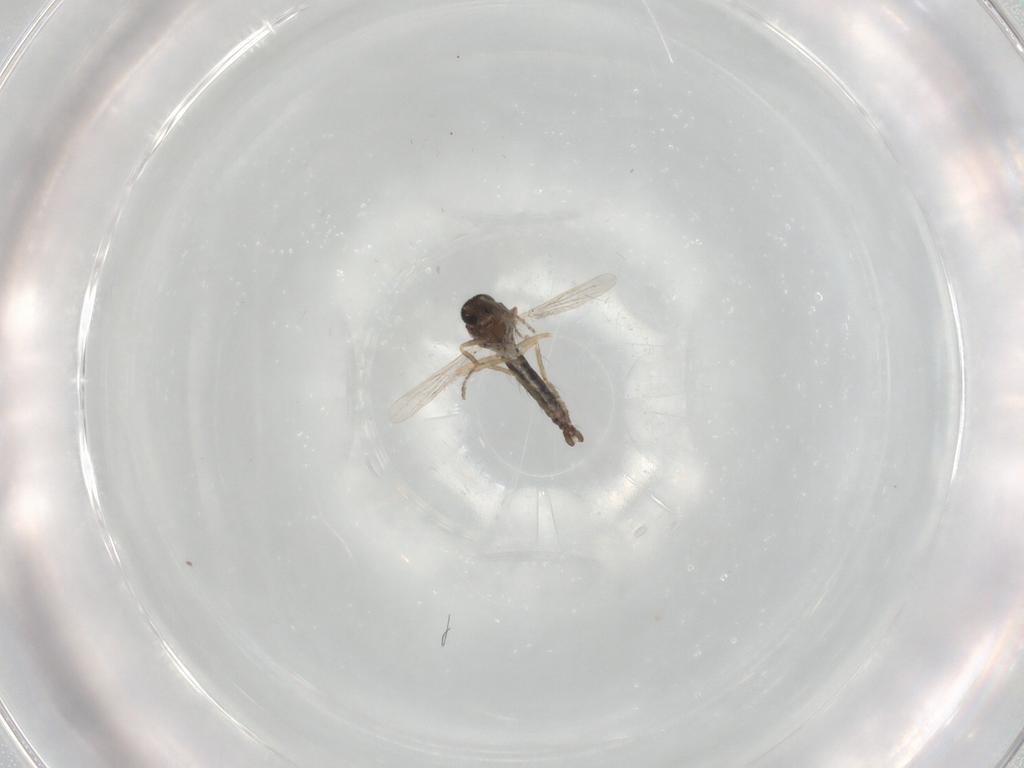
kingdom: Animalia
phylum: Arthropoda
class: Insecta
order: Diptera
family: Ceratopogonidae
